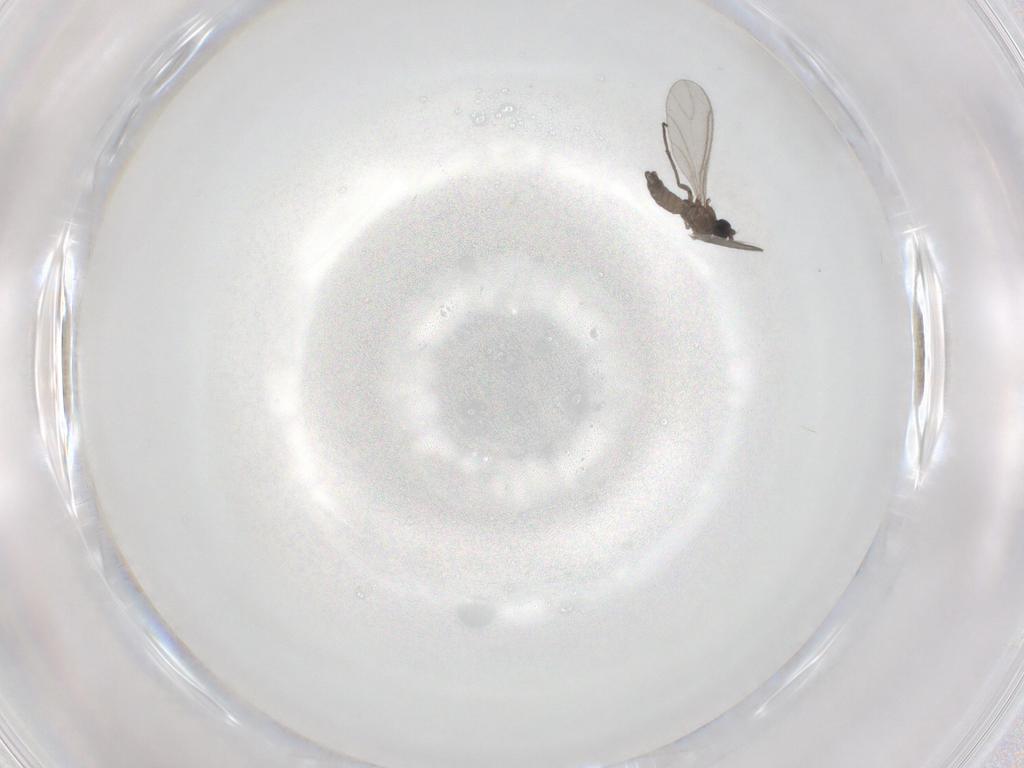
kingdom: Animalia
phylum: Arthropoda
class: Insecta
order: Diptera
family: Sciaridae
